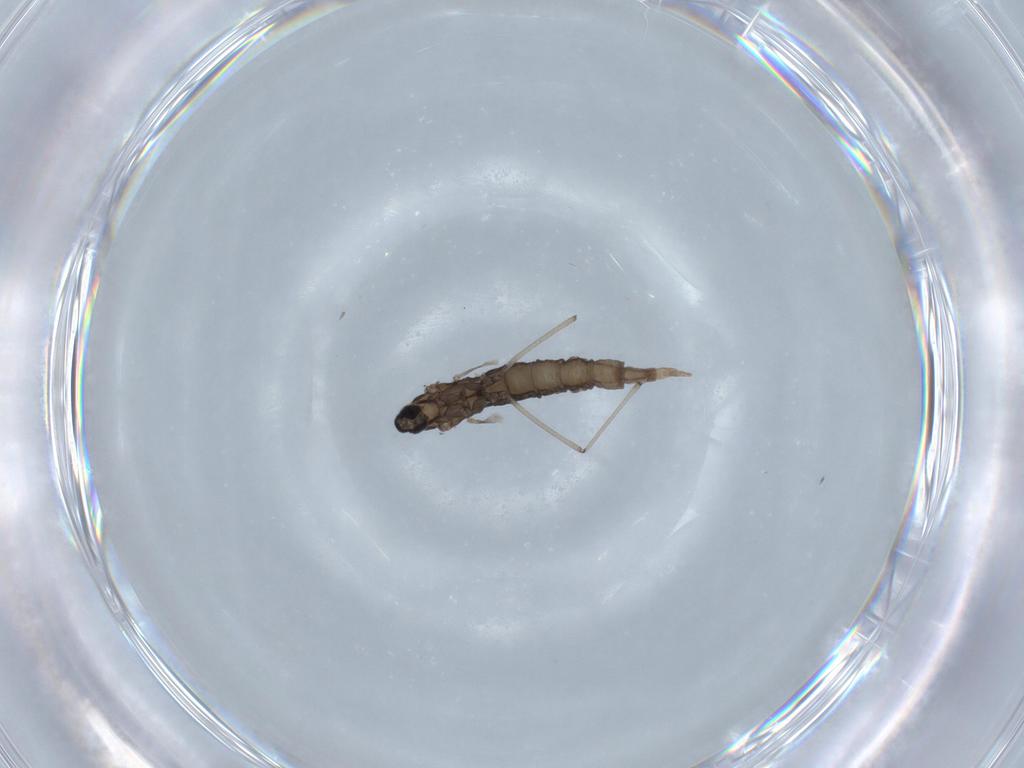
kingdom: Animalia
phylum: Arthropoda
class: Insecta
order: Diptera
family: Cecidomyiidae
